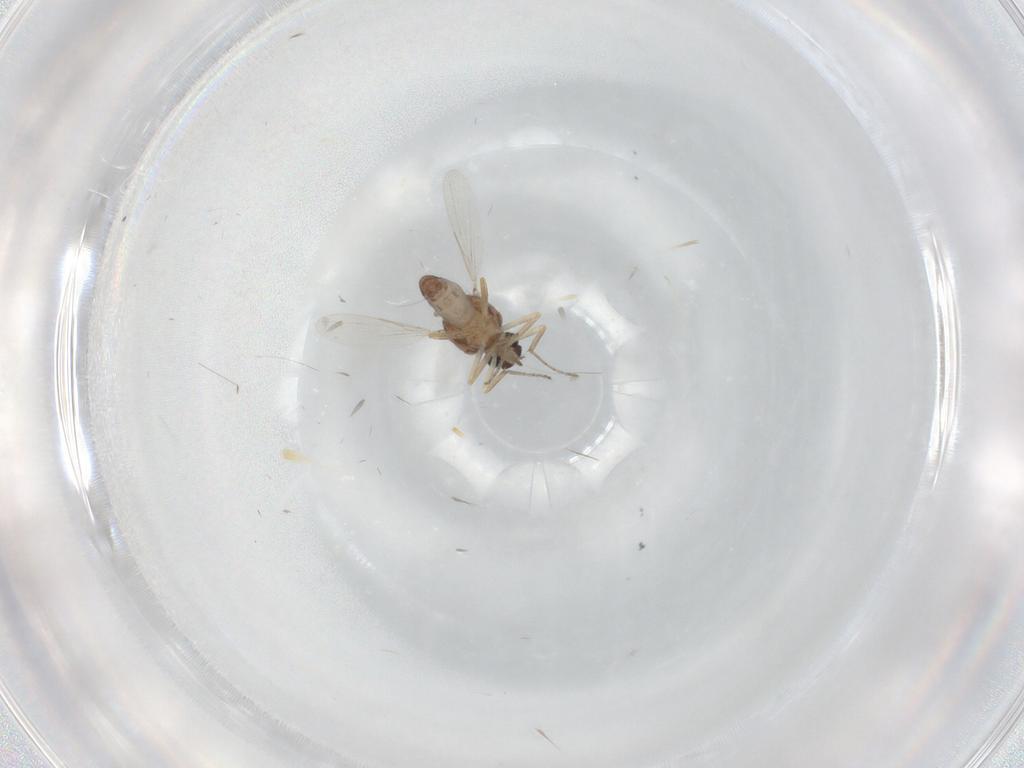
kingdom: Animalia
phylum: Arthropoda
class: Insecta
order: Diptera
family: Ceratopogonidae
